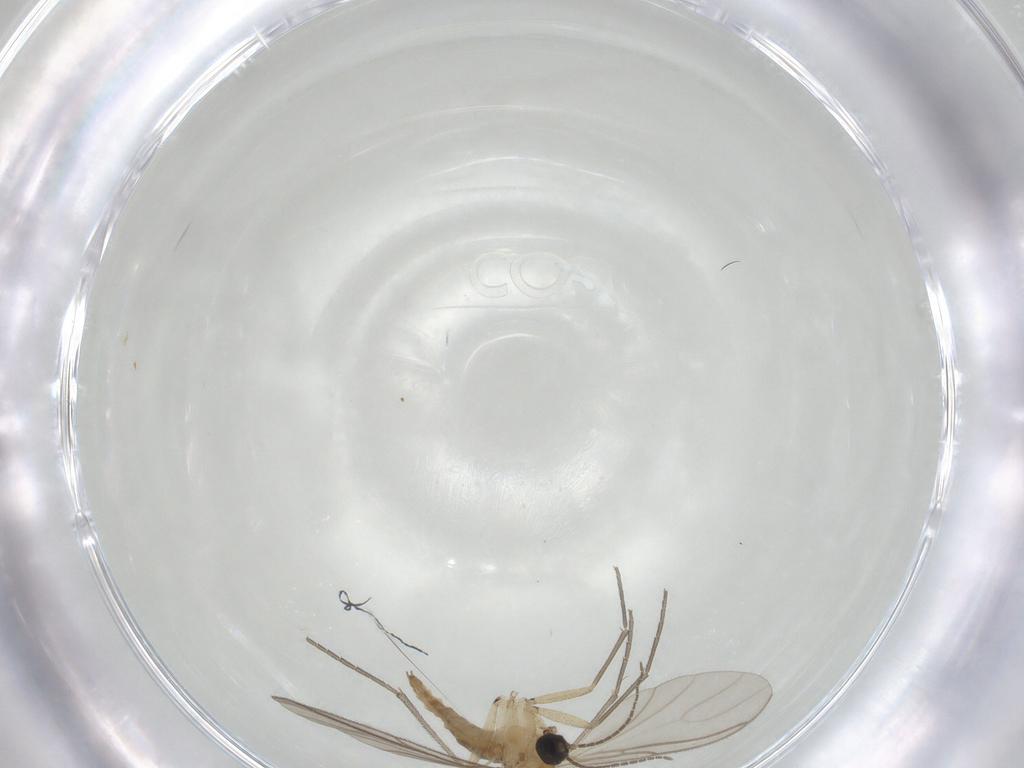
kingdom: Animalia
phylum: Arthropoda
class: Insecta
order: Diptera
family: Sciaridae
